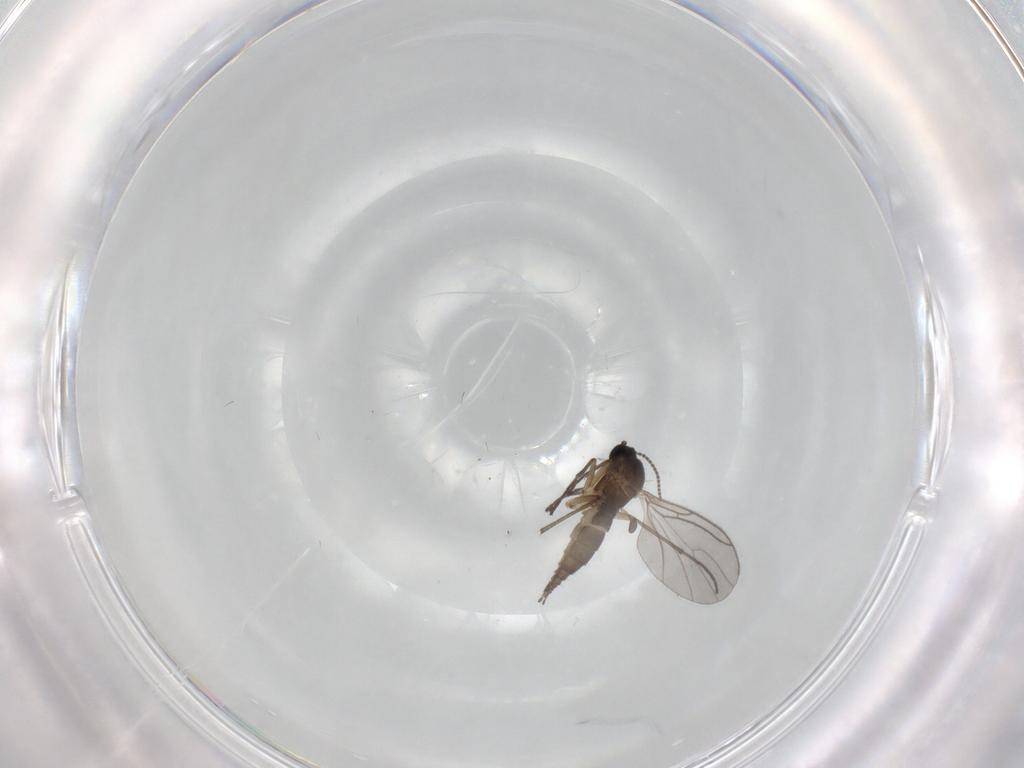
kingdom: Animalia
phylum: Arthropoda
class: Insecta
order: Diptera
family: Sciaridae
